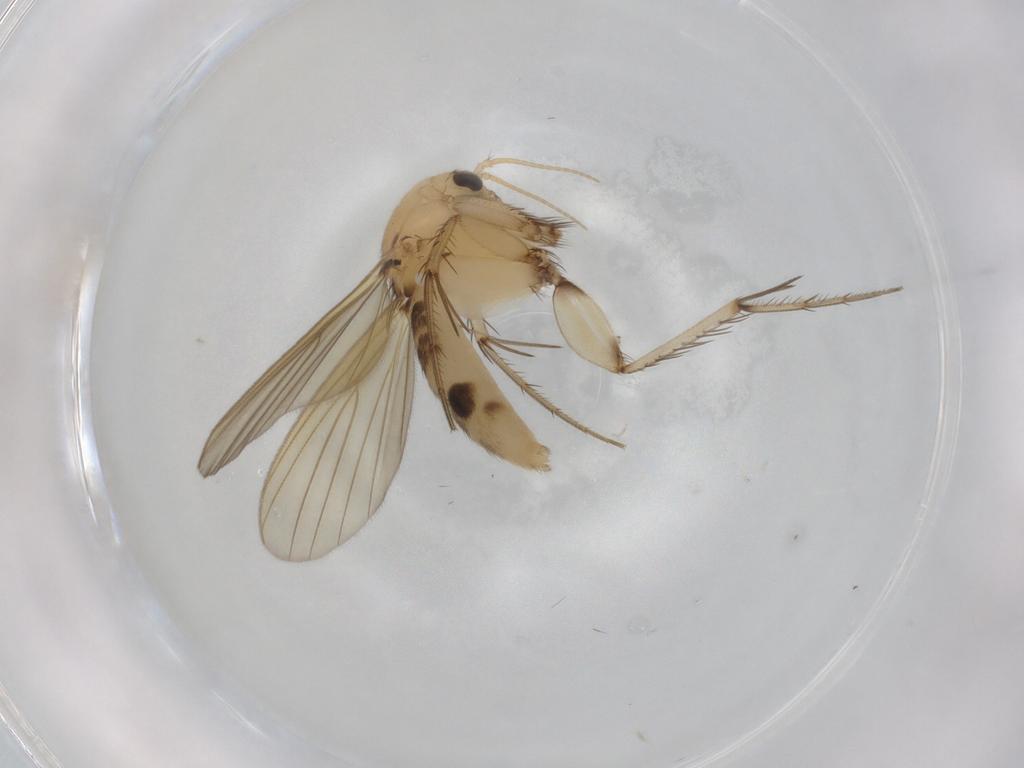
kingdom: Animalia
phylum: Arthropoda
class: Insecta
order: Diptera
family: Mycetophilidae
